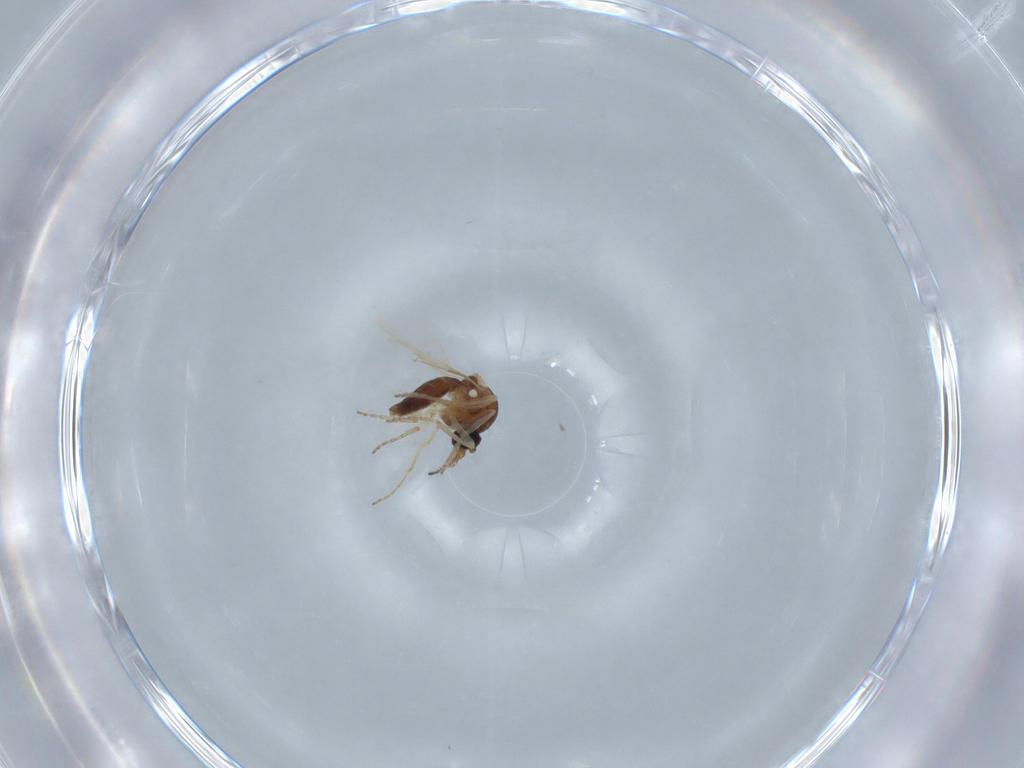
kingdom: Animalia
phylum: Arthropoda
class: Insecta
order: Diptera
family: Ceratopogonidae
